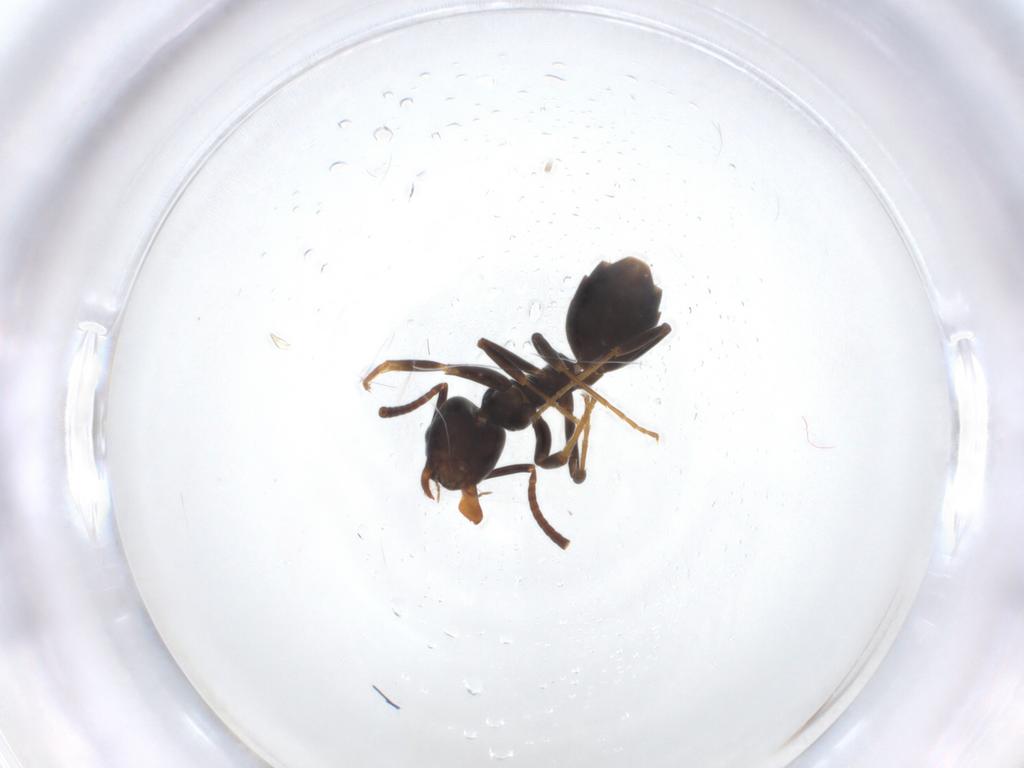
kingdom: Animalia
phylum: Arthropoda
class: Insecta
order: Hymenoptera
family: Formicidae
